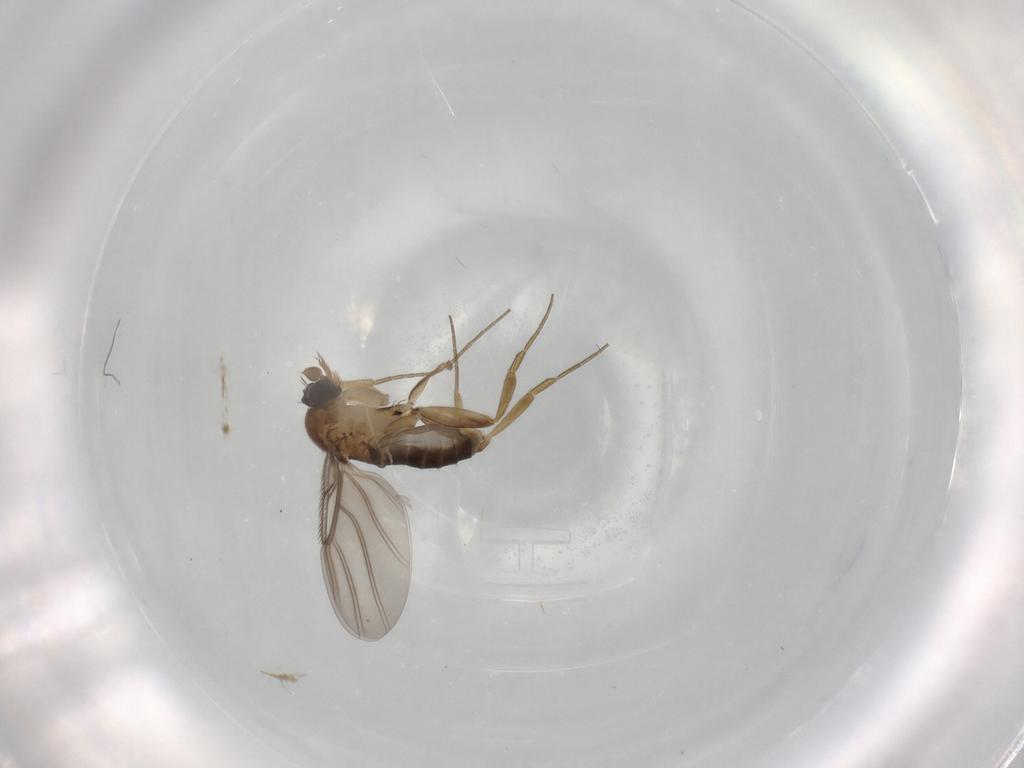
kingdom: Animalia
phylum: Arthropoda
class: Insecta
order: Diptera
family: Phoridae
